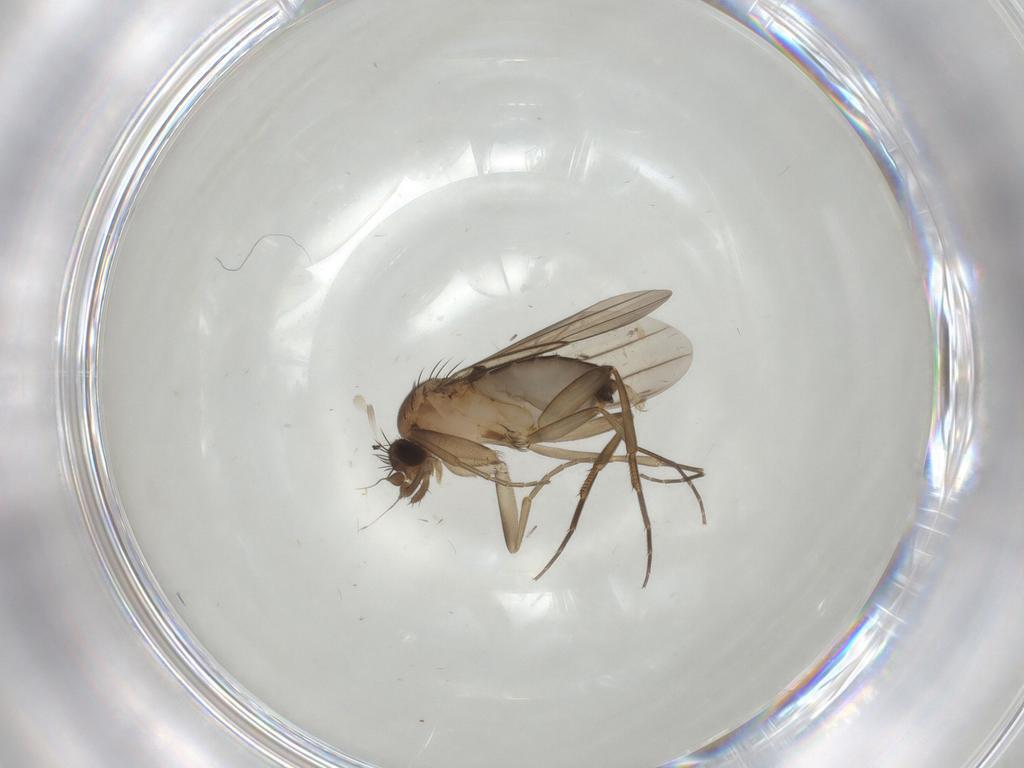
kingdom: Animalia
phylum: Arthropoda
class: Insecta
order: Diptera
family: Phoridae
